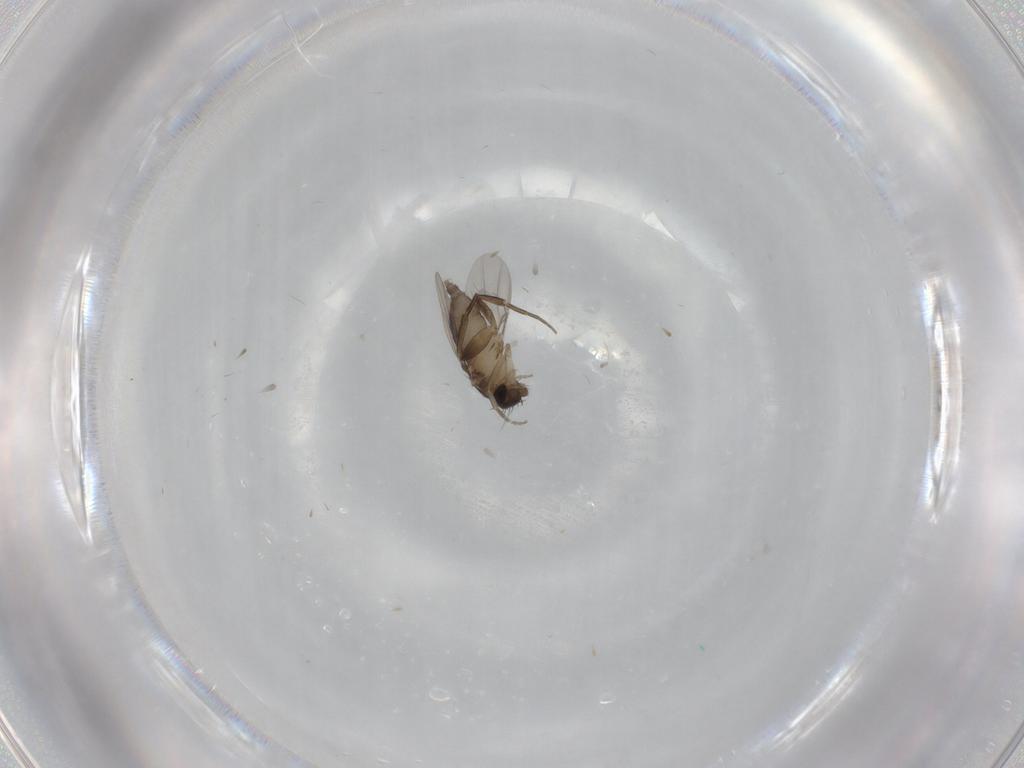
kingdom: Animalia
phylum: Arthropoda
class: Insecta
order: Diptera
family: Phoridae
